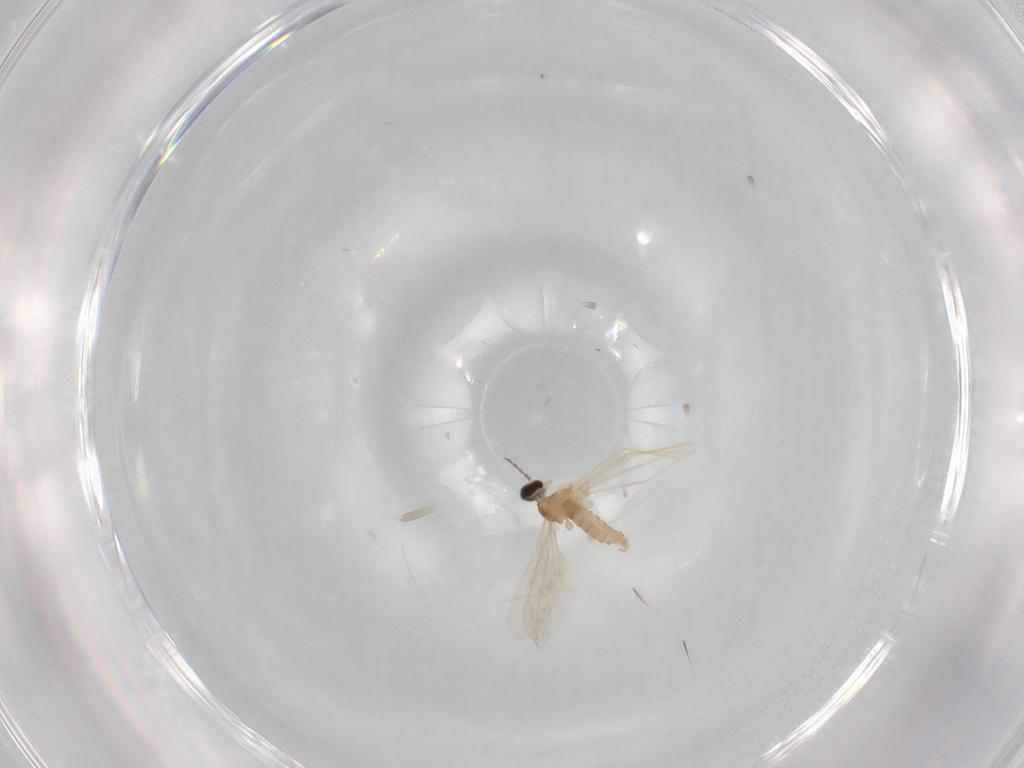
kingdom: Animalia
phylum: Arthropoda
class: Insecta
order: Diptera
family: Cecidomyiidae
